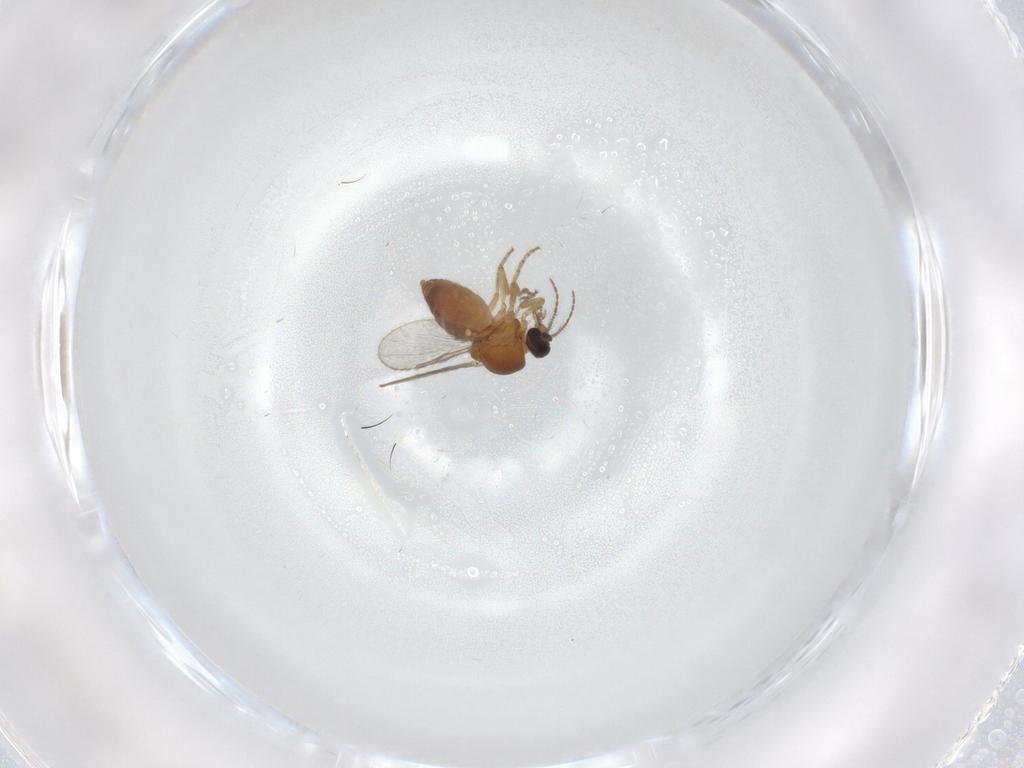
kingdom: Animalia
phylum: Arthropoda
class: Insecta
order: Diptera
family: Ceratopogonidae
